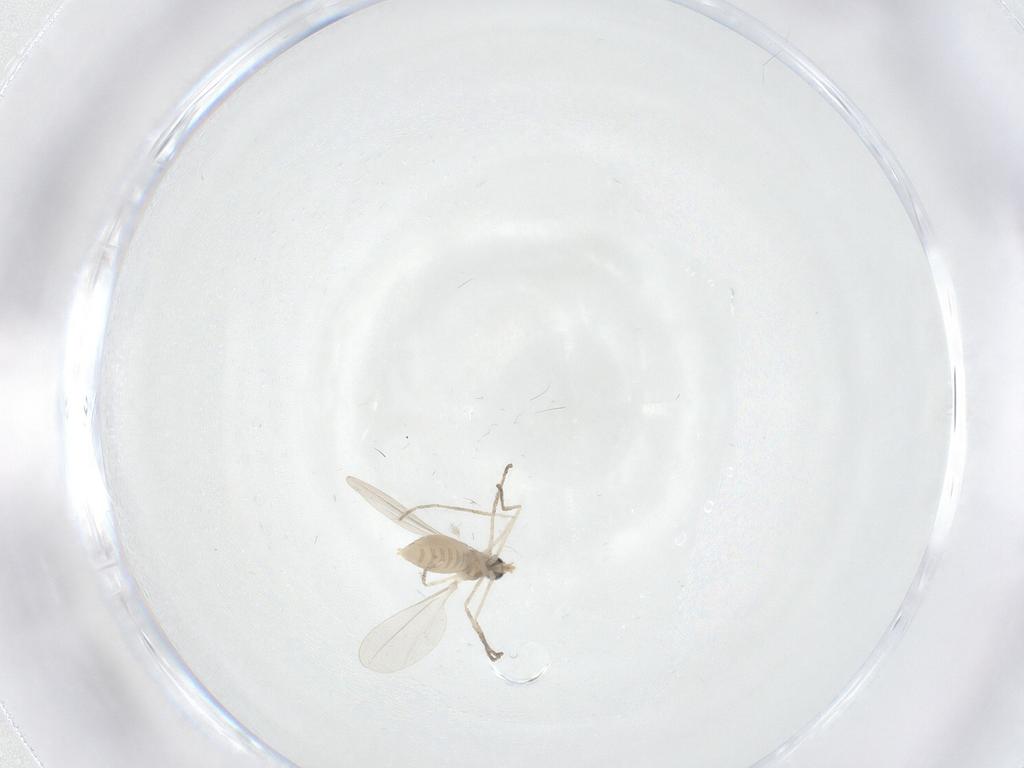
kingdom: Animalia
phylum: Arthropoda
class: Insecta
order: Diptera
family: Cecidomyiidae
